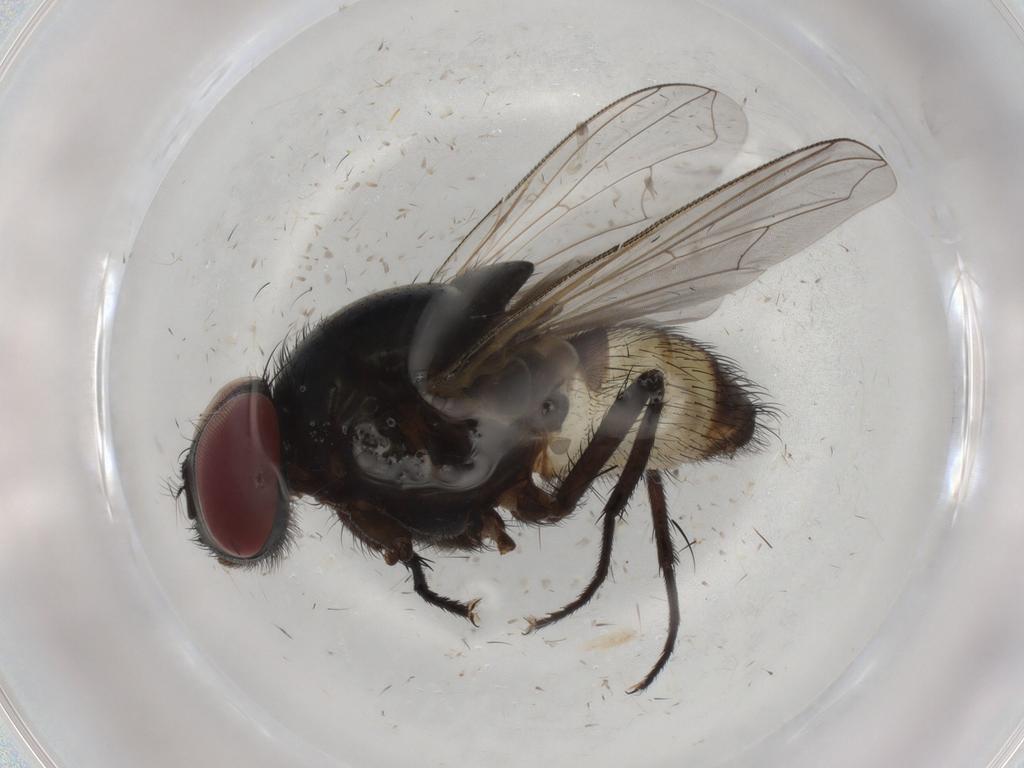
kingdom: Animalia
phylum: Arthropoda
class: Insecta
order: Diptera
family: Muscidae
